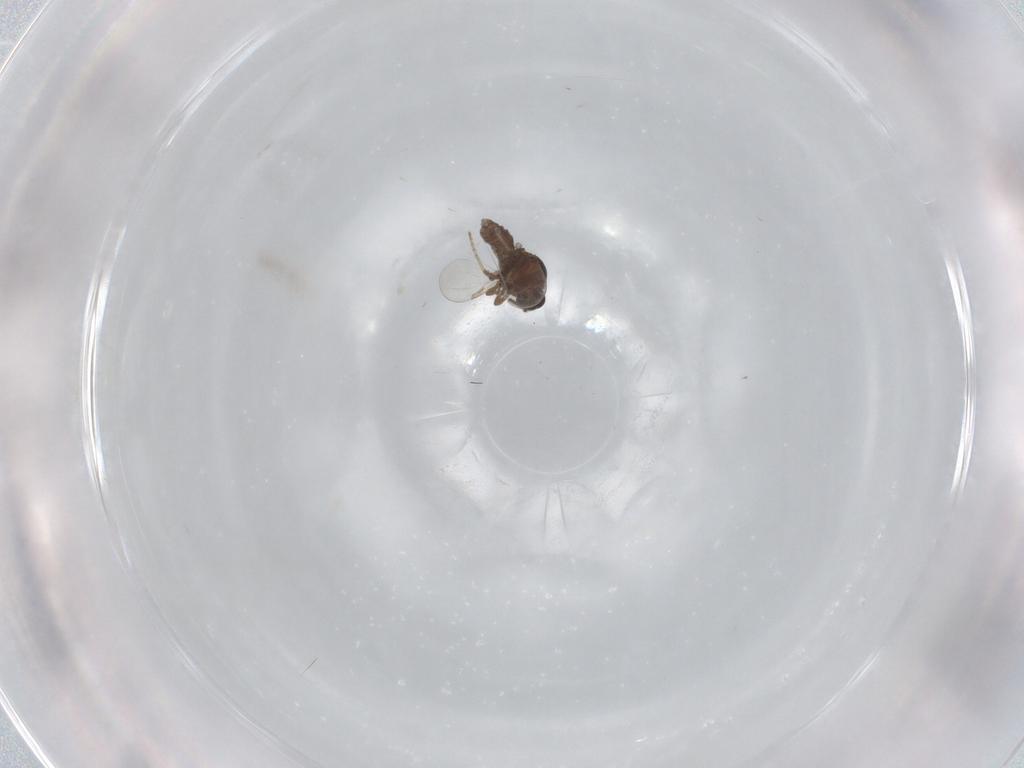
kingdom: Animalia
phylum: Arthropoda
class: Insecta
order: Diptera
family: Ceratopogonidae
